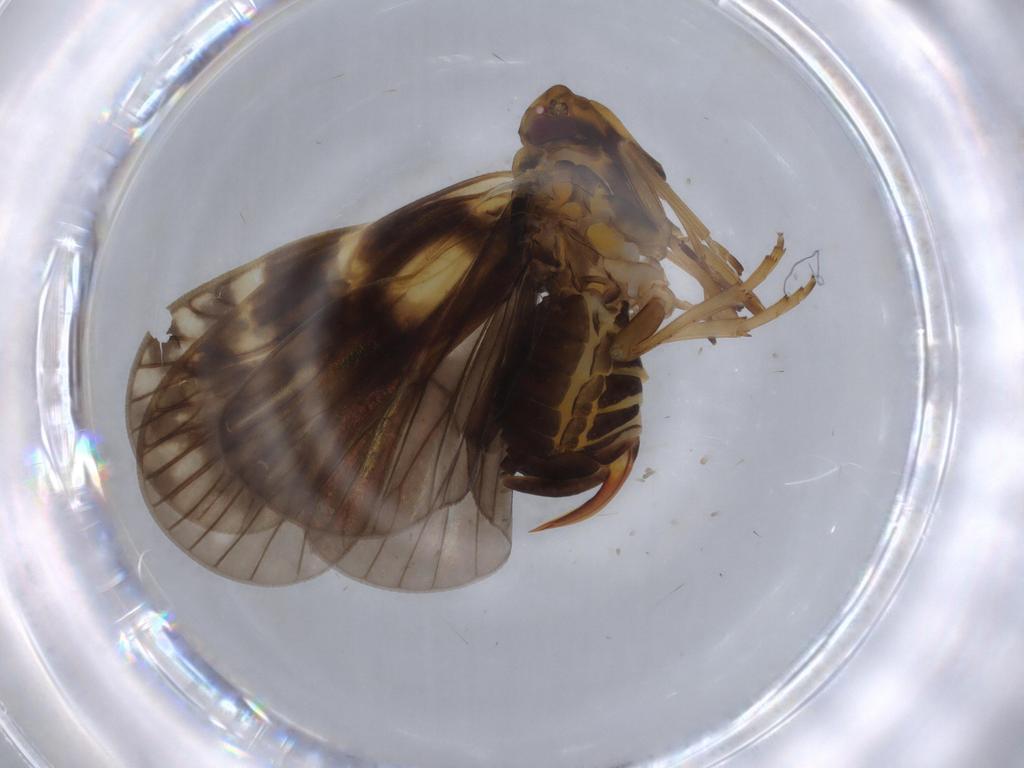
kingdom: Animalia
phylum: Arthropoda
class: Insecta
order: Hemiptera
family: Cixiidae
